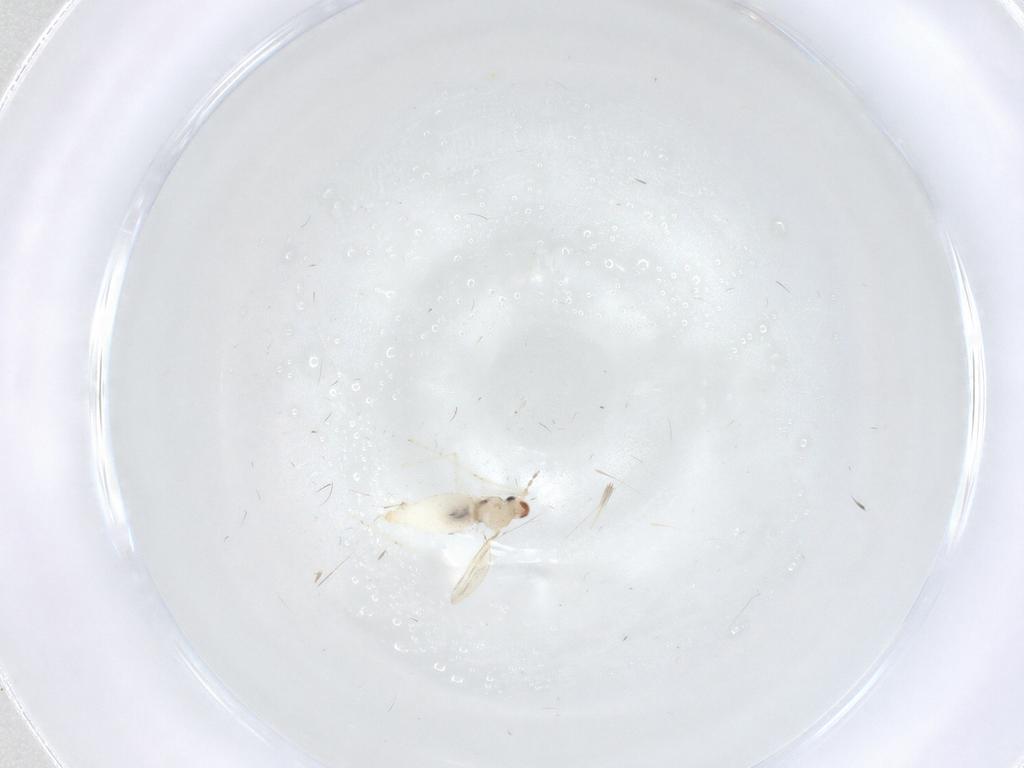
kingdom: Animalia
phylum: Arthropoda
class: Insecta
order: Diptera
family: Cecidomyiidae
